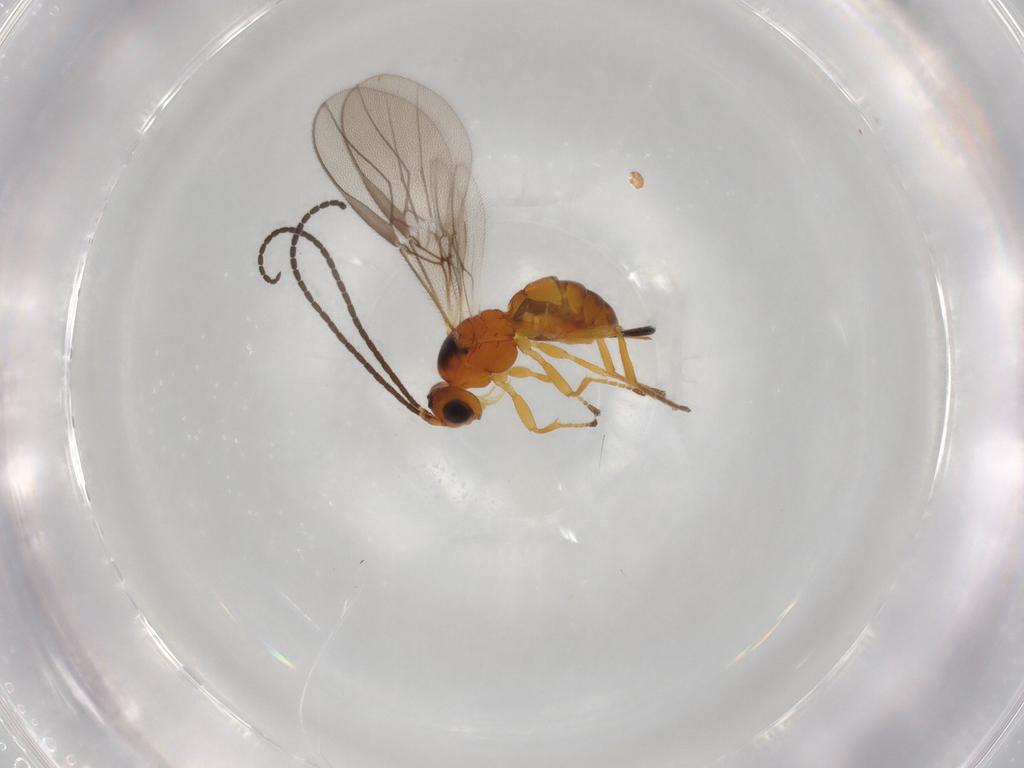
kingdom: Animalia
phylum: Arthropoda
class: Insecta
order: Hymenoptera
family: Braconidae
